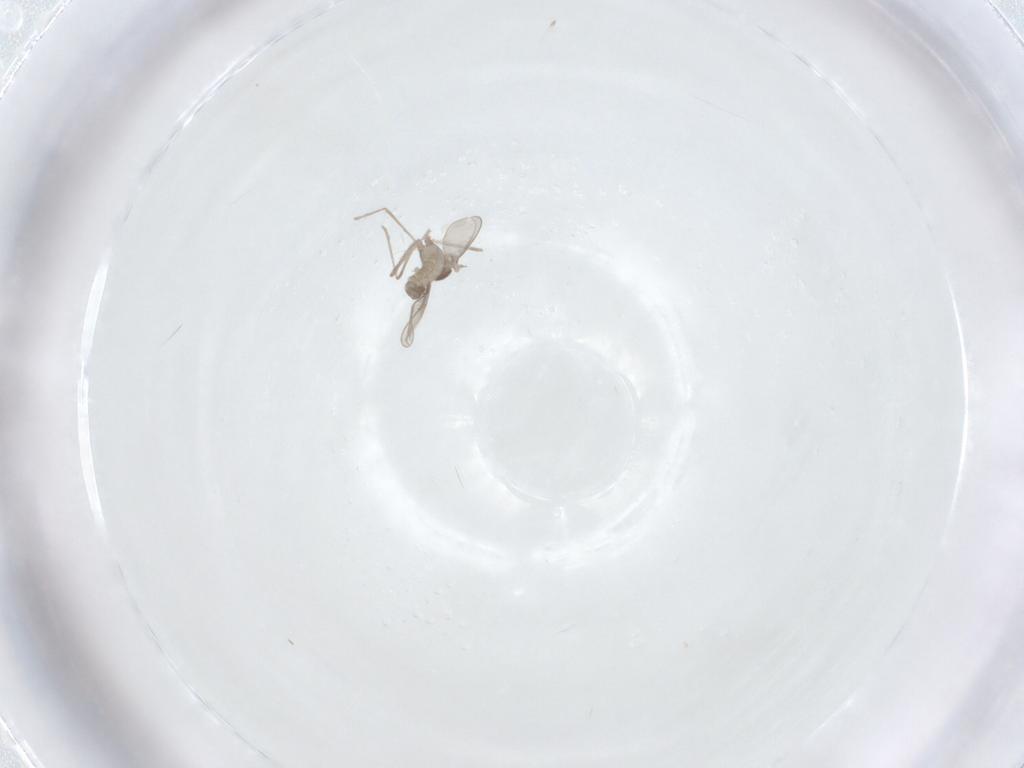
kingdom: Animalia
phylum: Arthropoda
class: Insecta
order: Diptera
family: Cecidomyiidae
